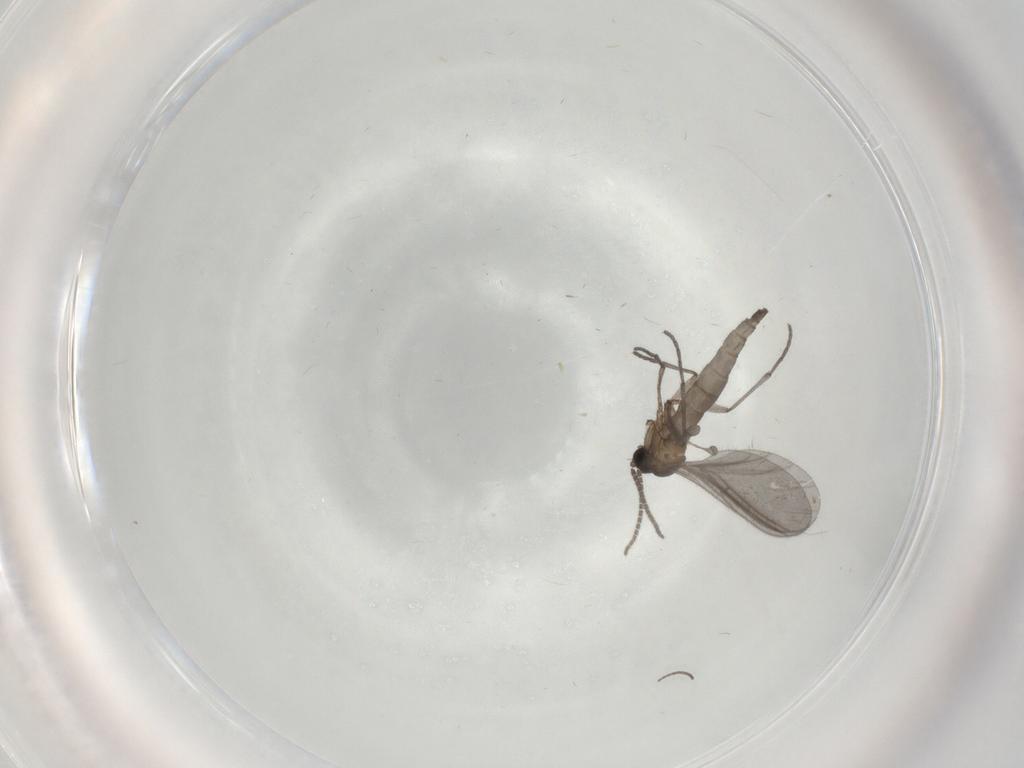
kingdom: Animalia
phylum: Arthropoda
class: Insecta
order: Diptera
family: Sciaridae
